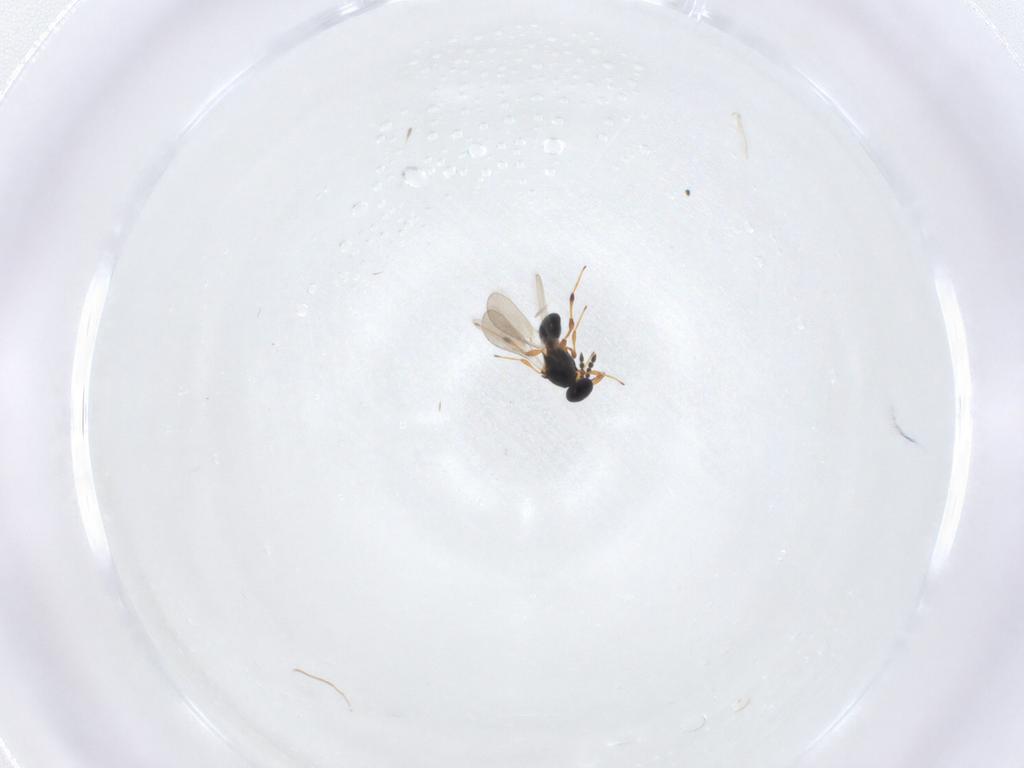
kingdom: Animalia
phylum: Arthropoda
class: Insecta
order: Hymenoptera
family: Platygastridae
